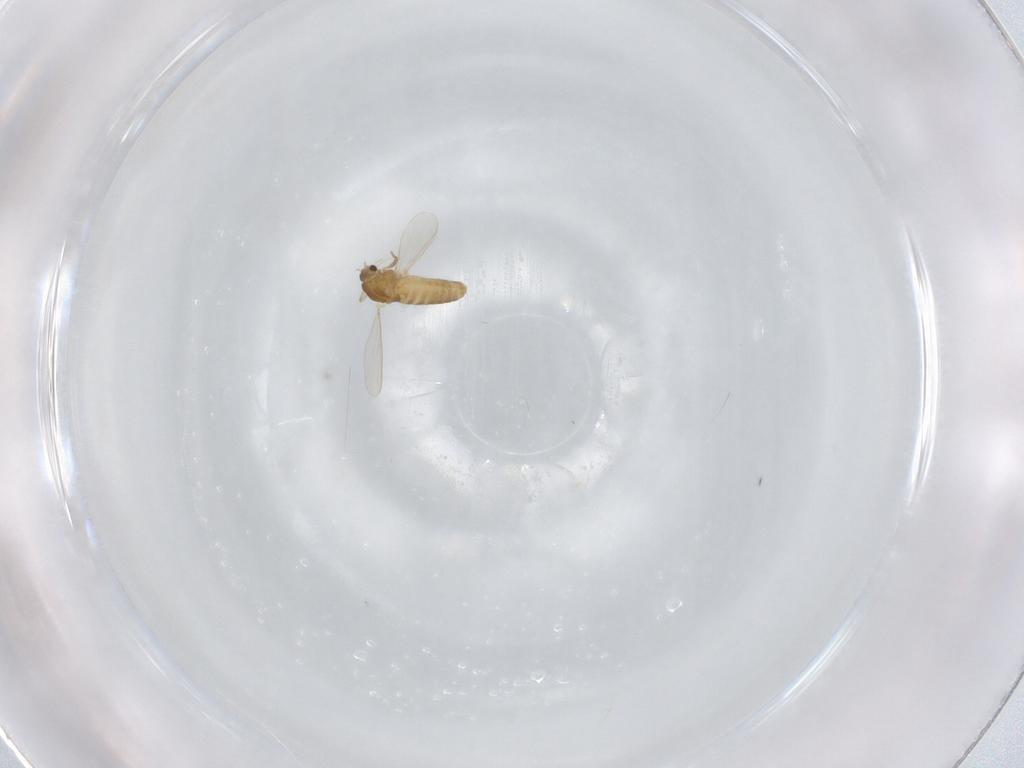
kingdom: Animalia
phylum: Arthropoda
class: Insecta
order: Diptera
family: Chironomidae
